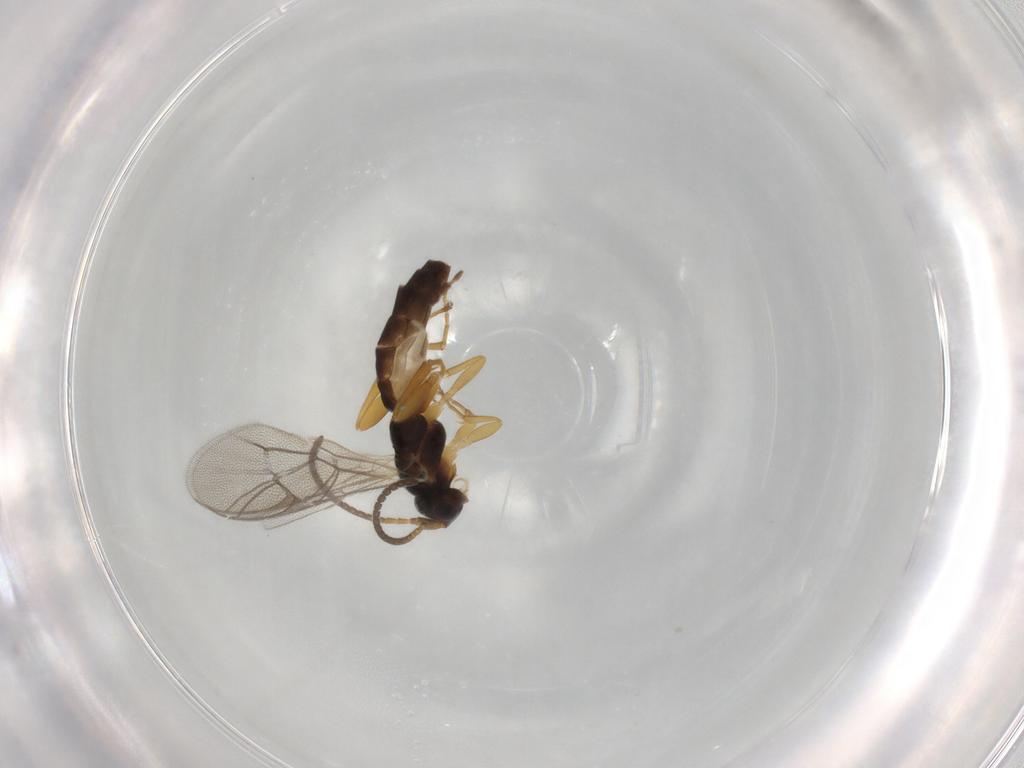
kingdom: Animalia
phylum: Arthropoda
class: Insecta
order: Hymenoptera
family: Ichneumonidae
